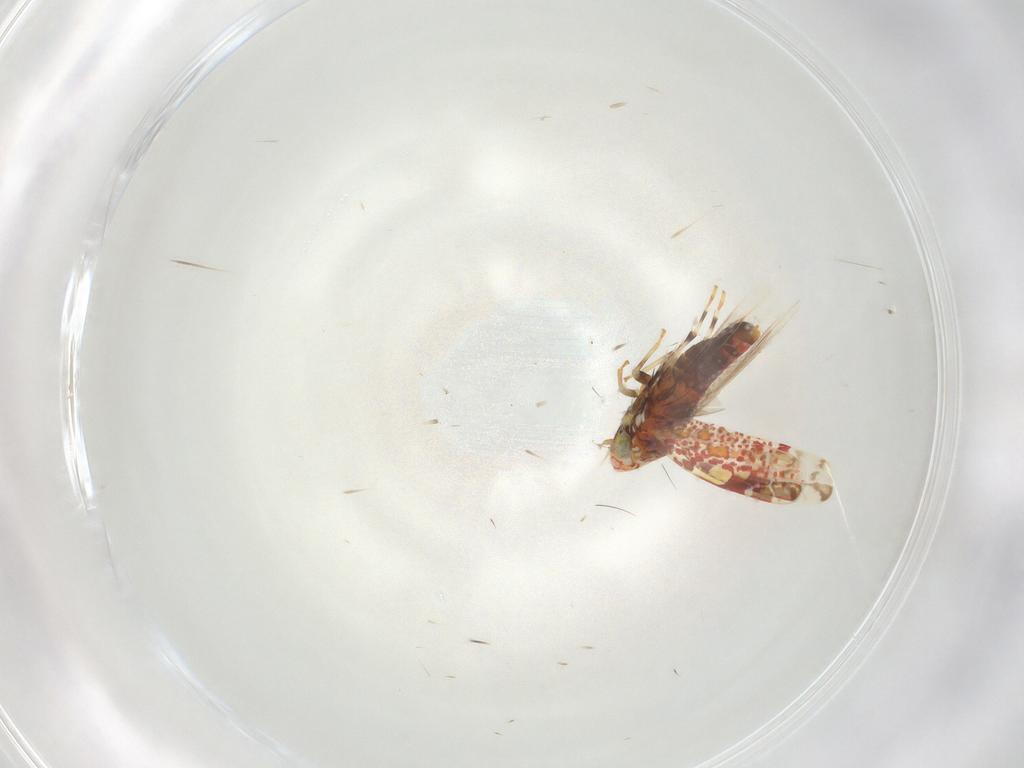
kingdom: Animalia
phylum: Arthropoda
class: Insecta
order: Hemiptera
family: Cicadellidae
